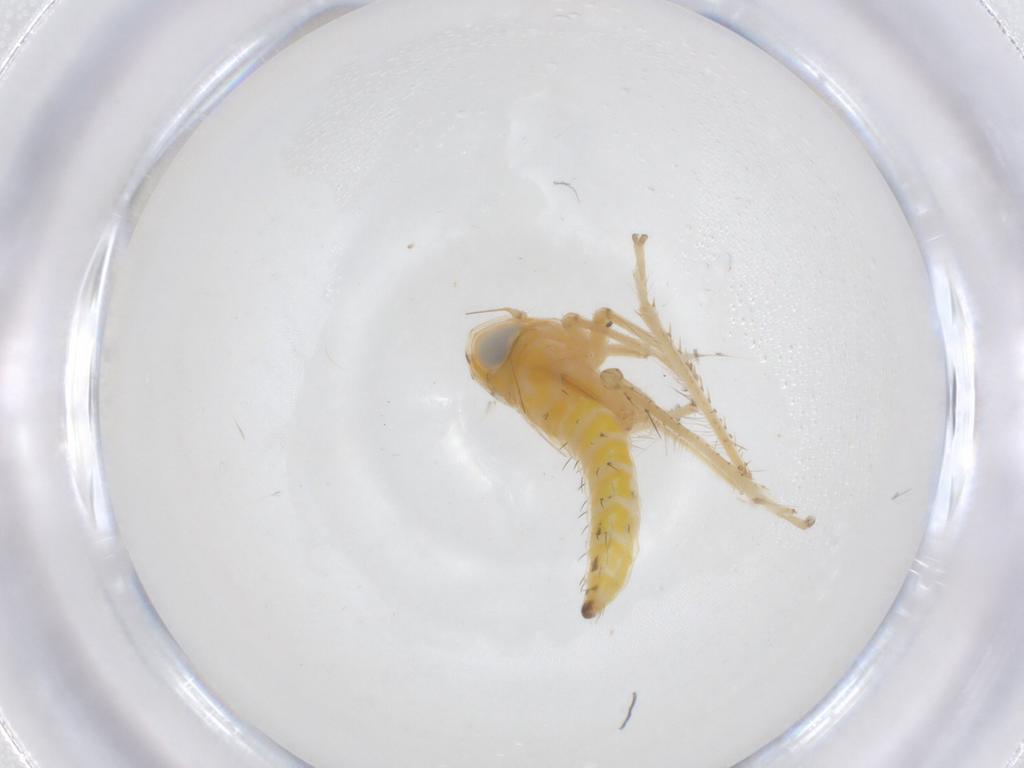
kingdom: Animalia
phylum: Arthropoda
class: Insecta
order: Hemiptera
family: Cicadellidae
